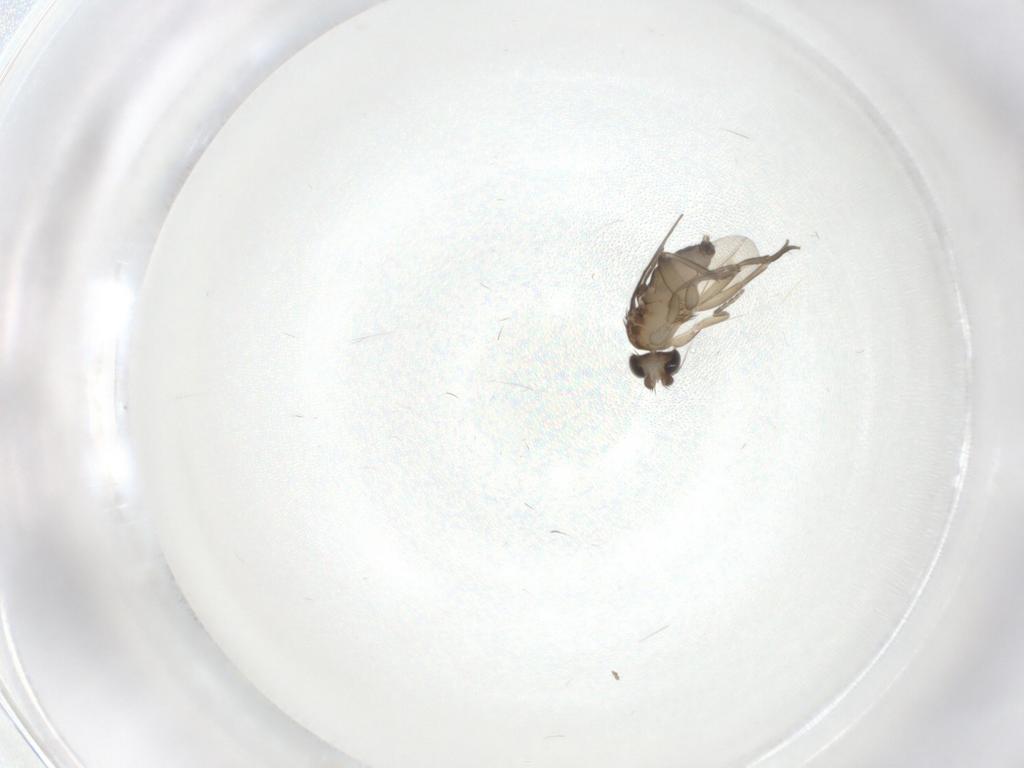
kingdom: Animalia
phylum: Arthropoda
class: Insecta
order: Diptera
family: Phoridae
